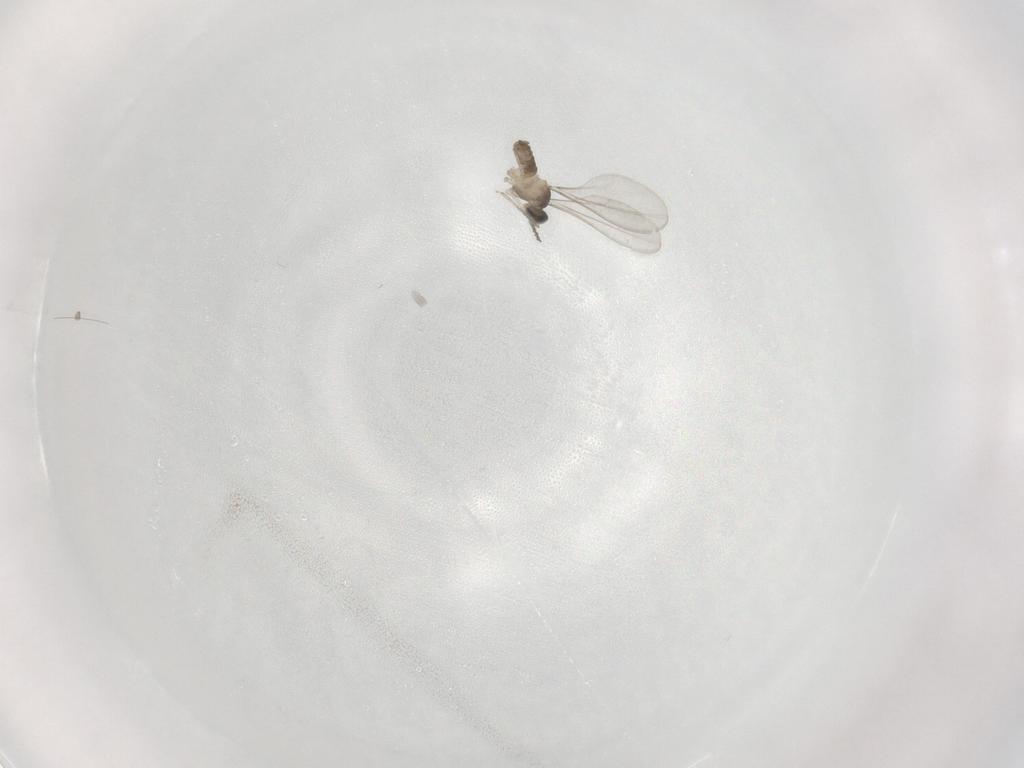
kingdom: Animalia
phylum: Arthropoda
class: Insecta
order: Diptera
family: Cecidomyiidae
